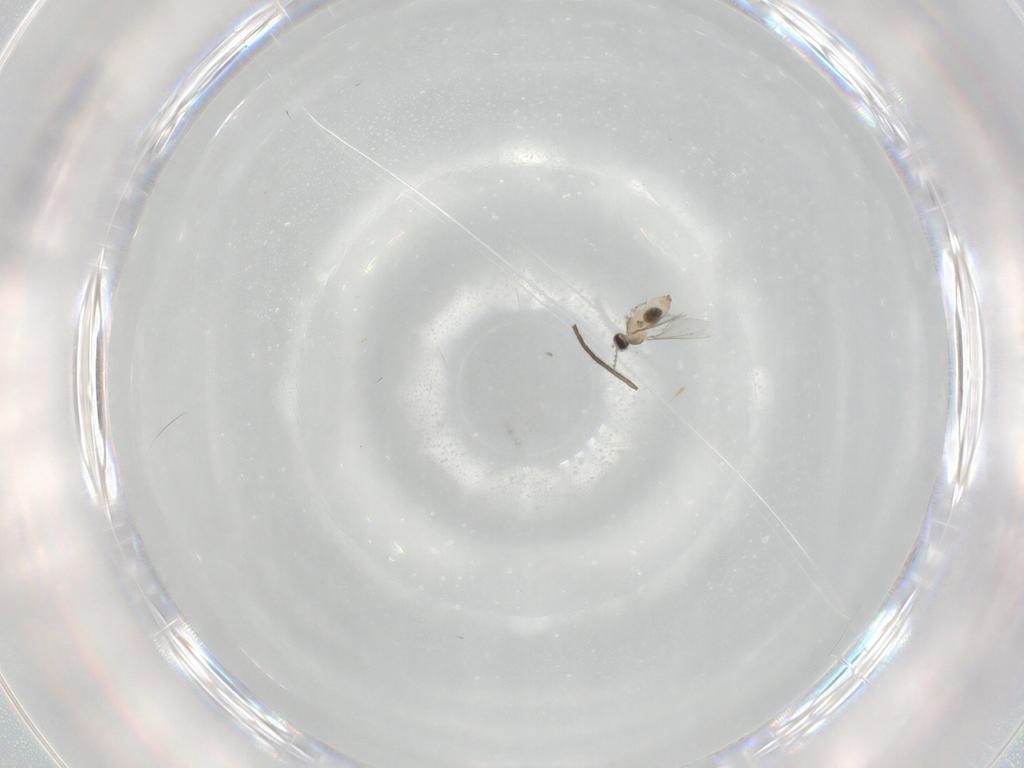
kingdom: Animalia
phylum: Arthropoda
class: Insecta
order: Diptera
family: Cecidomyiidae
